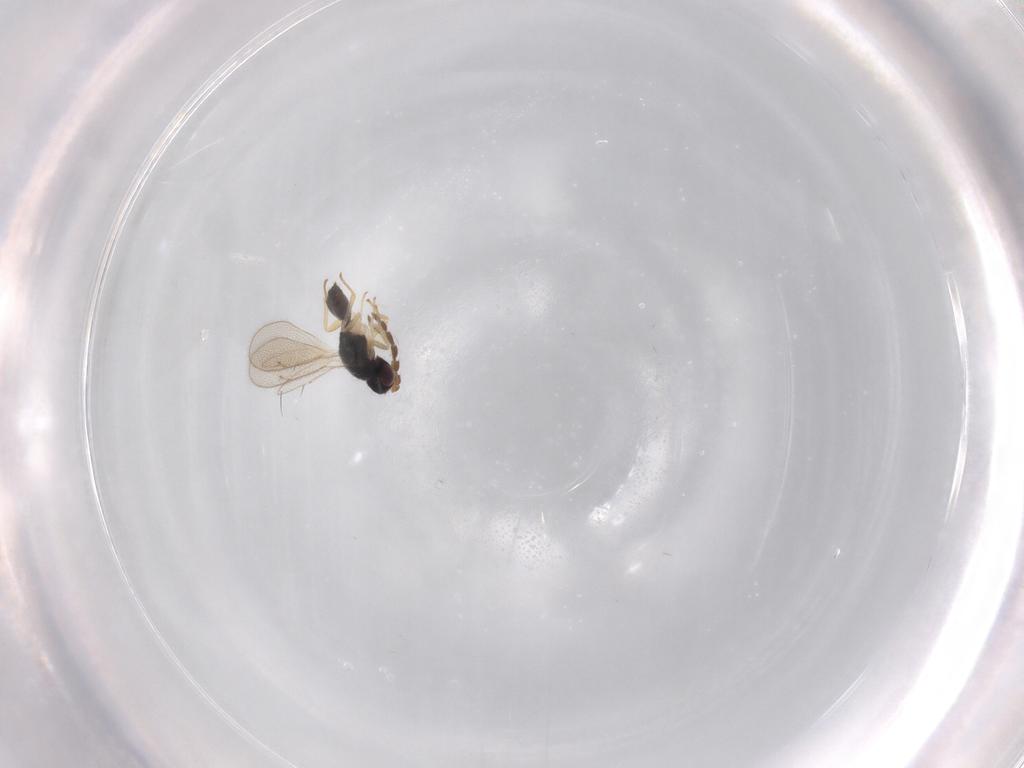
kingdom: Animalia
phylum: Arthropoda
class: Insecta
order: Hymenoptera
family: Eulophidae
